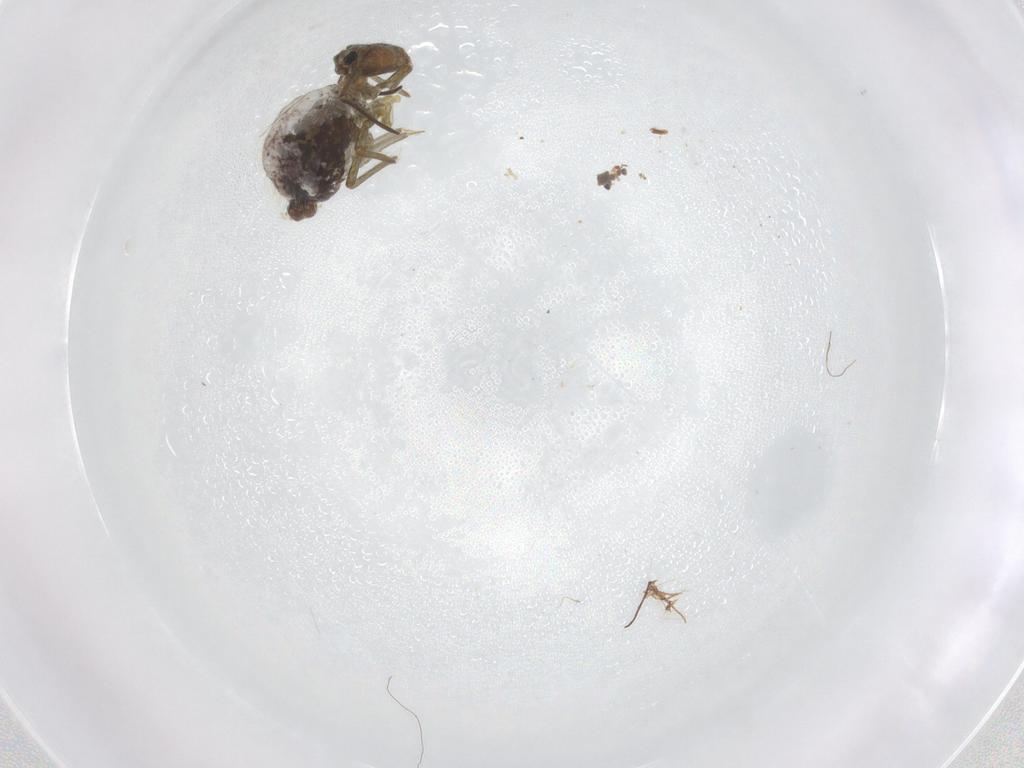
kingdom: Animalia
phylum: Arthropoda
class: Collembola
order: Symphypleona
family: Sminthuridae
